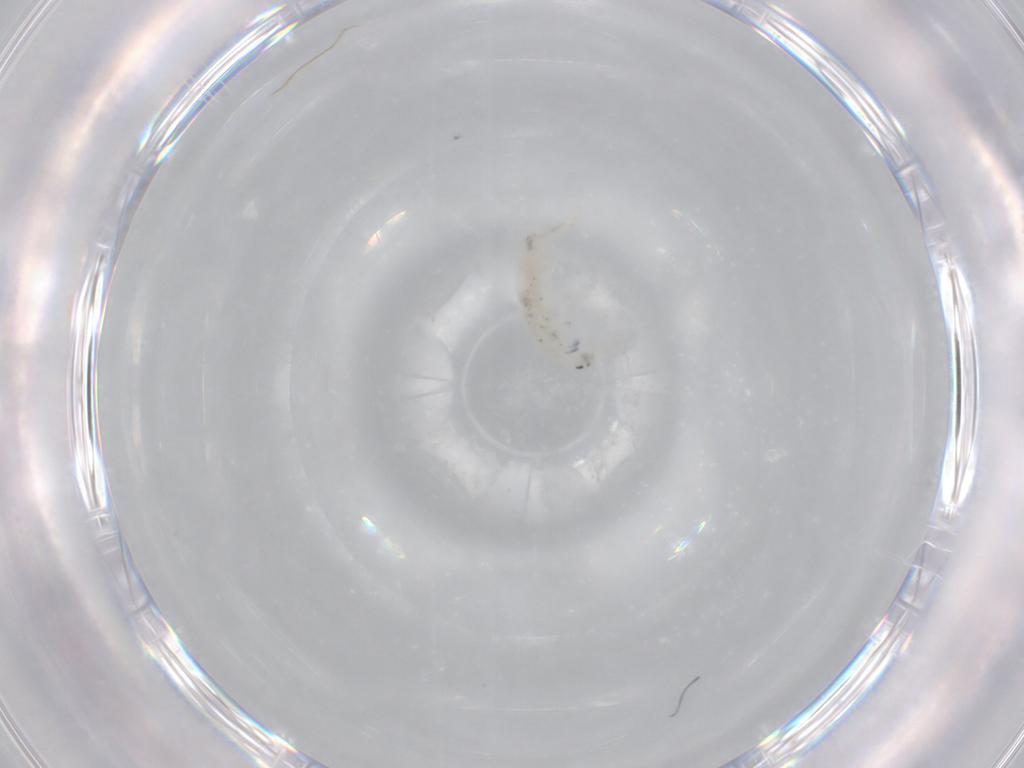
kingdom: Animalia
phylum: Arthropoda
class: Collembola
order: Entomobryomorpha
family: Entomobryidae
